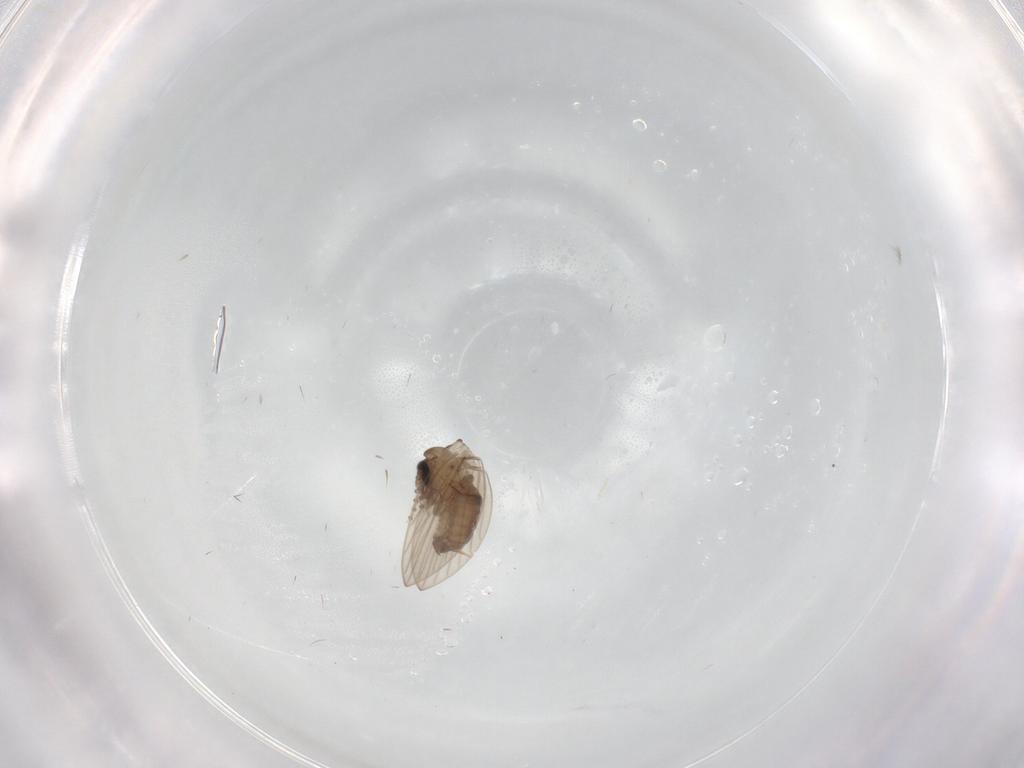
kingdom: Animalia
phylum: Arthropoda
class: Insecta
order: Diptera
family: Psychodidae
